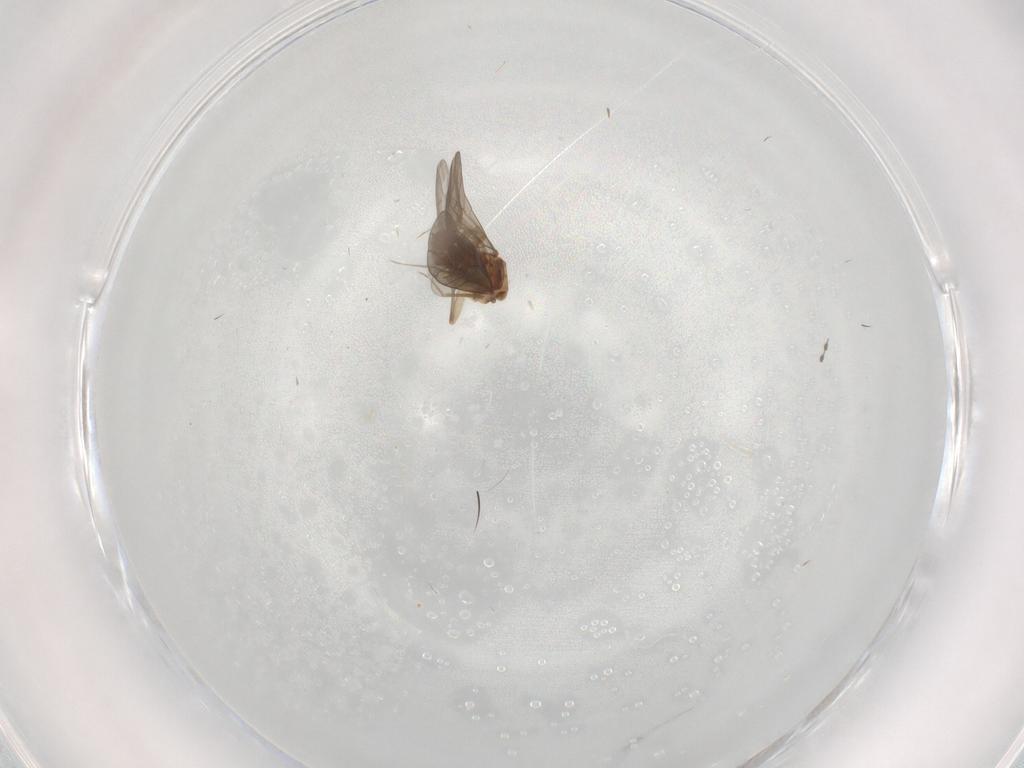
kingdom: Animalia
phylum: Arthropoda
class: Insecta
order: Psocodea
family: Lepidopsocidae
